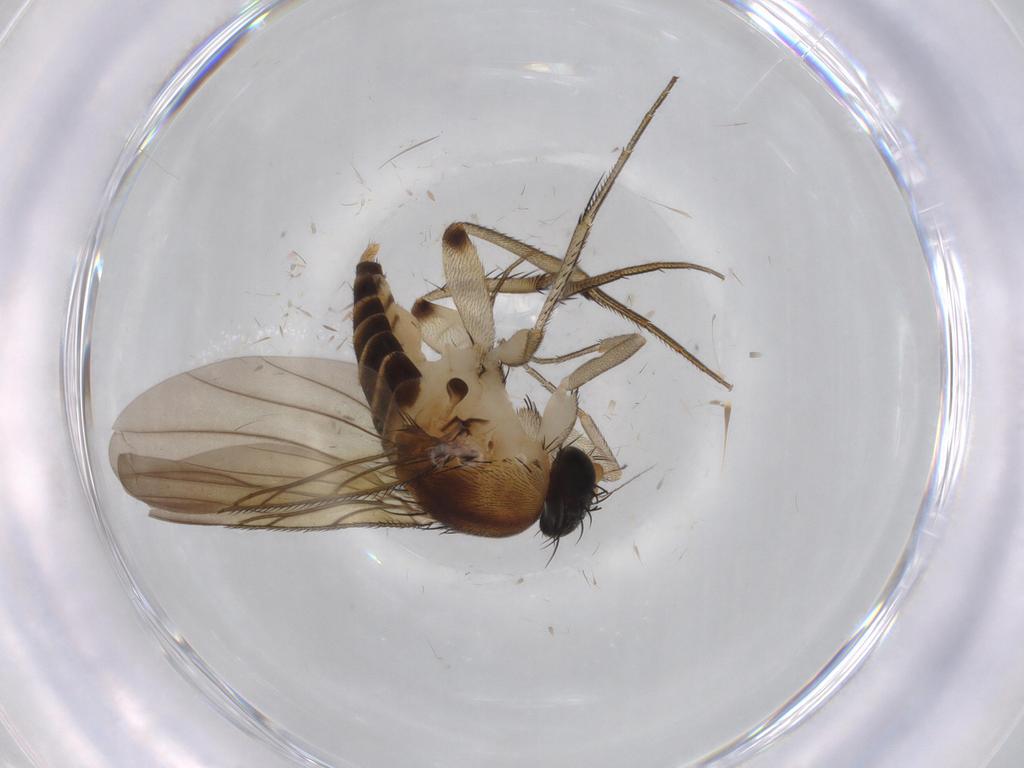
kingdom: Animalia
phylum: Arthropoda
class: Insecta
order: Diptera
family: Phoridae
